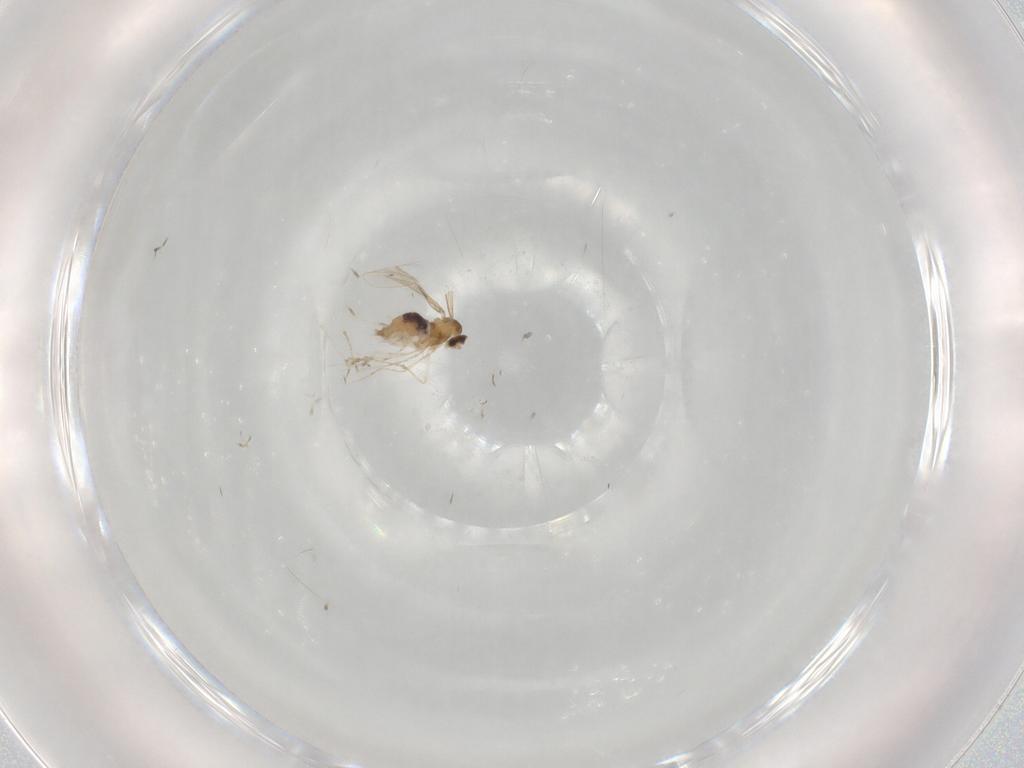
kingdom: Animalia
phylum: Arthropoda
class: Insecta
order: Diptera
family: Cecidomyiidae
